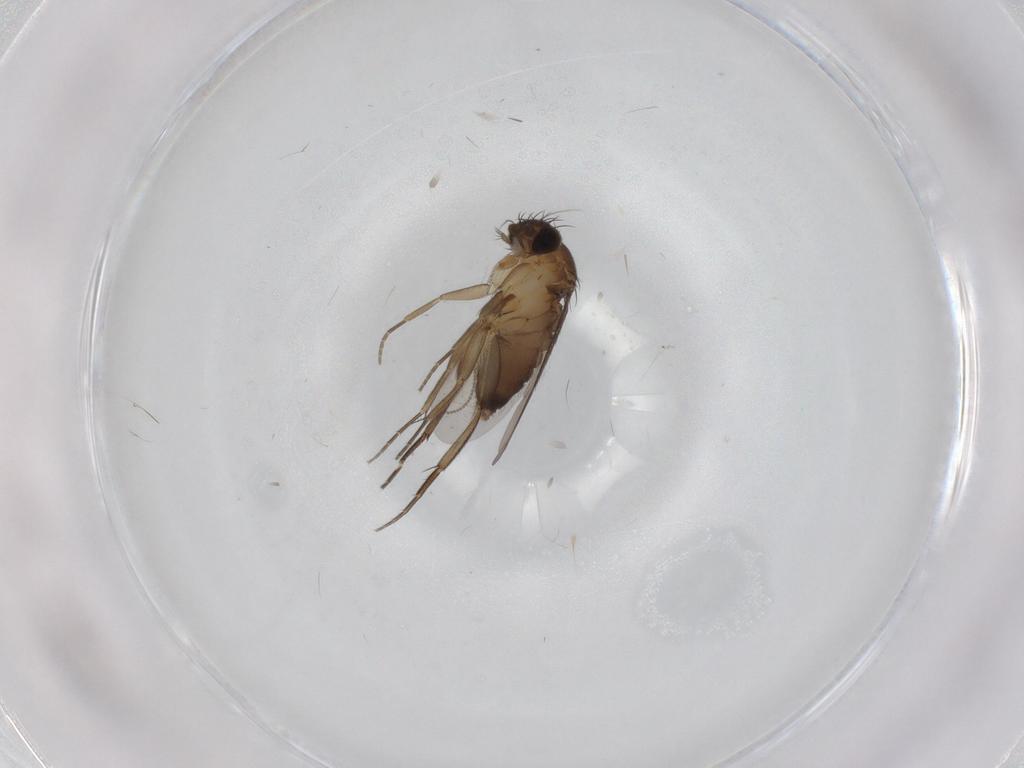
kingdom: Animalia
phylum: Arthropoda
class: Insecta
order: Diptera
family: Phoridae
